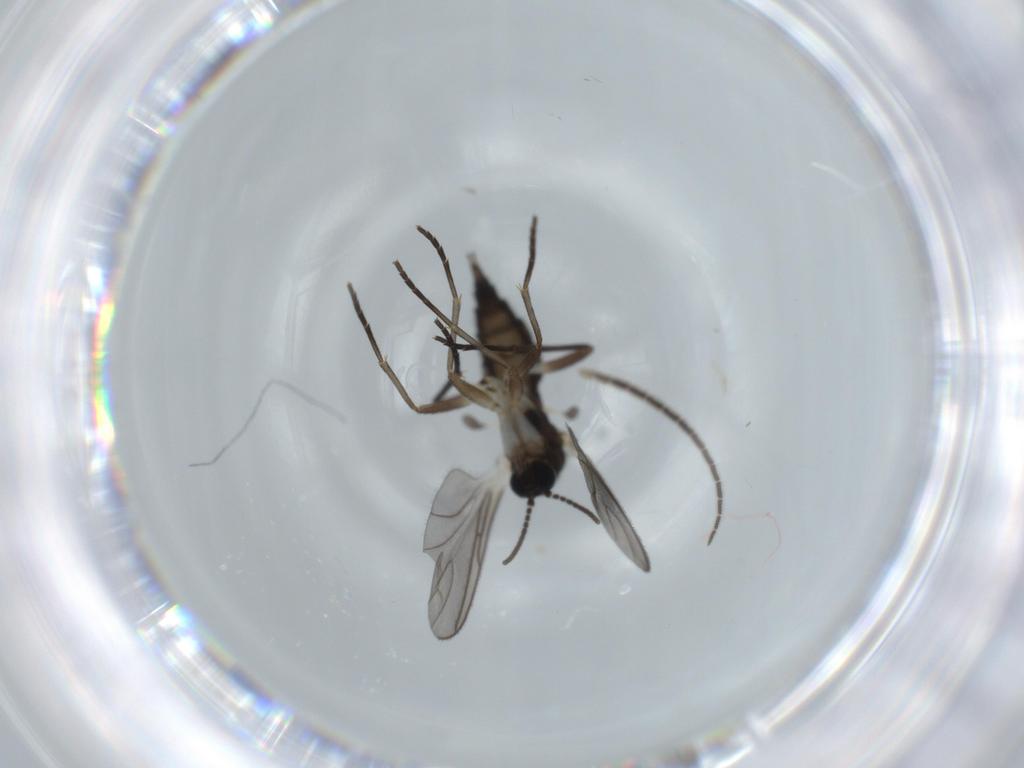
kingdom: Animalia
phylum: Arthropoda
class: Insecta
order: Diptera
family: Sciaridae
